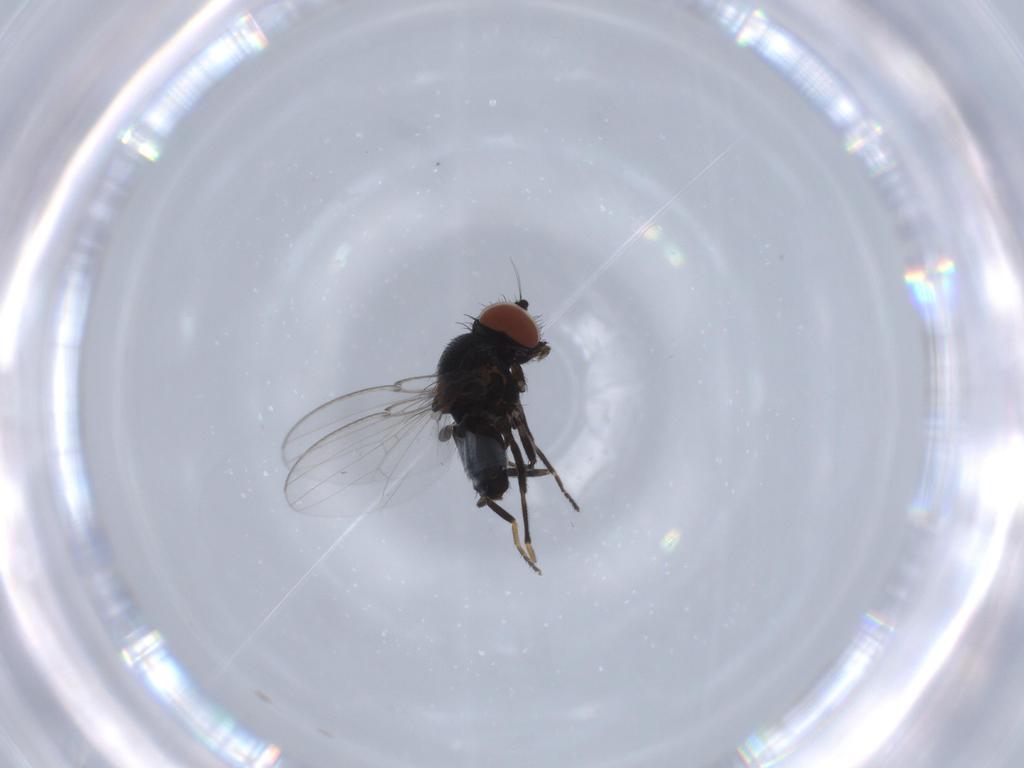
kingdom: Animalia
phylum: Arthropoda
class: Insecta
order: Diptera
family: Milichiidae
